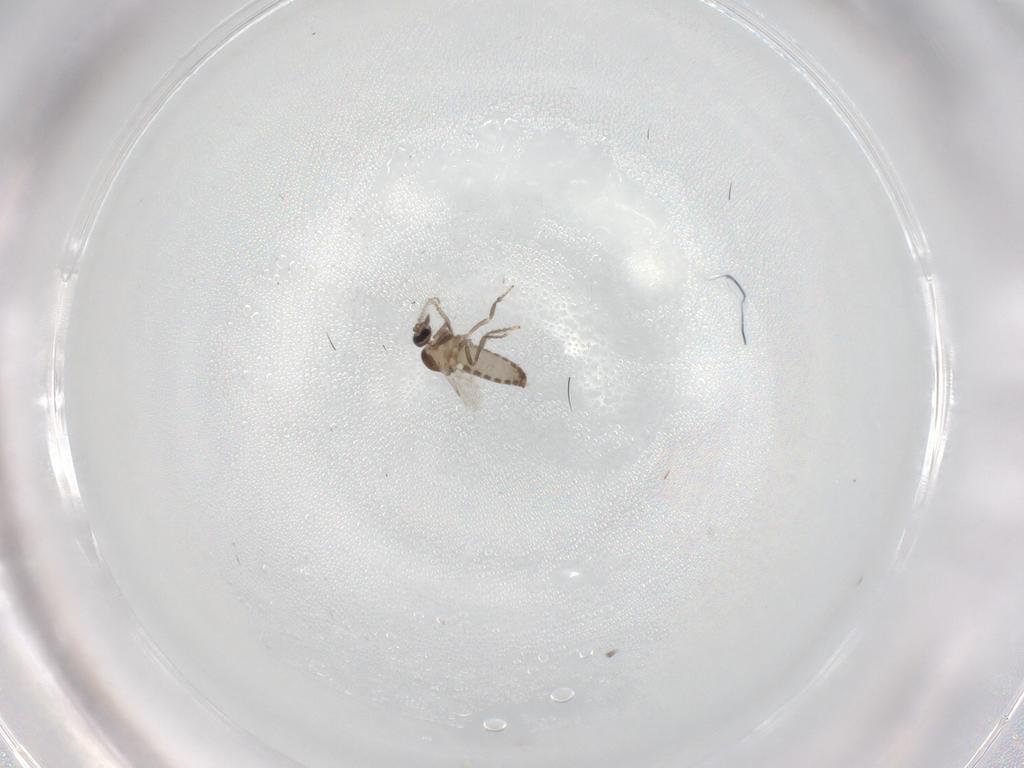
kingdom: Animalia
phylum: Arthropoda
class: Insecta
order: Diptera
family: Ceratopogonidae
